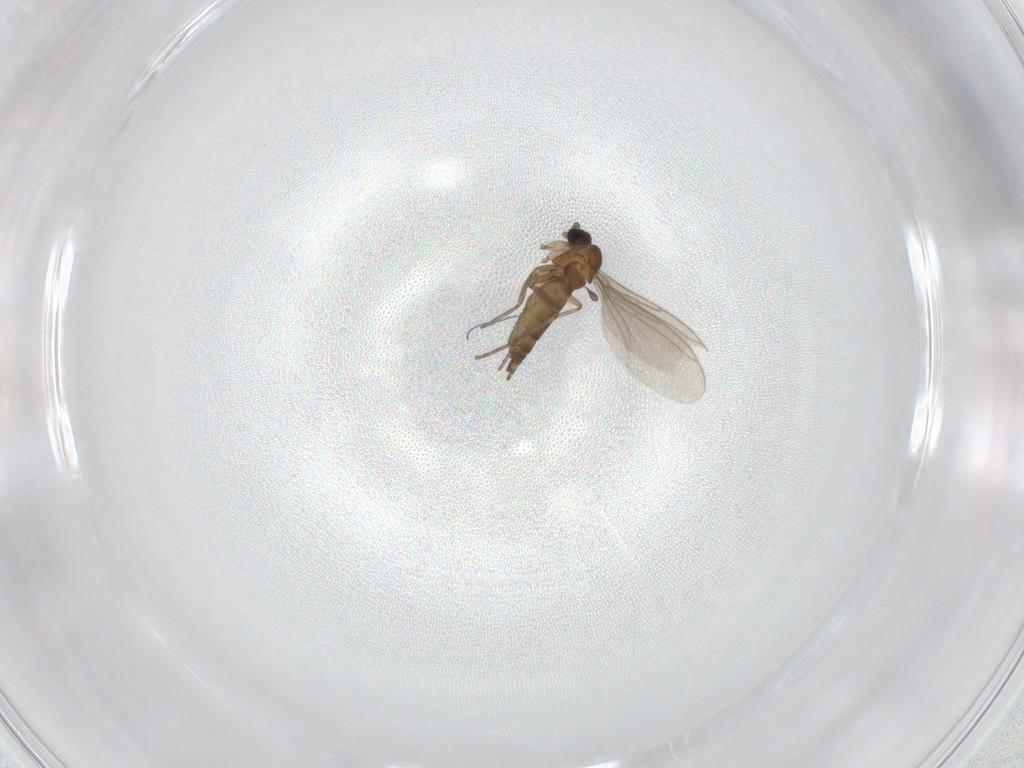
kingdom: Animalia
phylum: Arthropoda
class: Insecta
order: Diptera
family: Sciaridae
